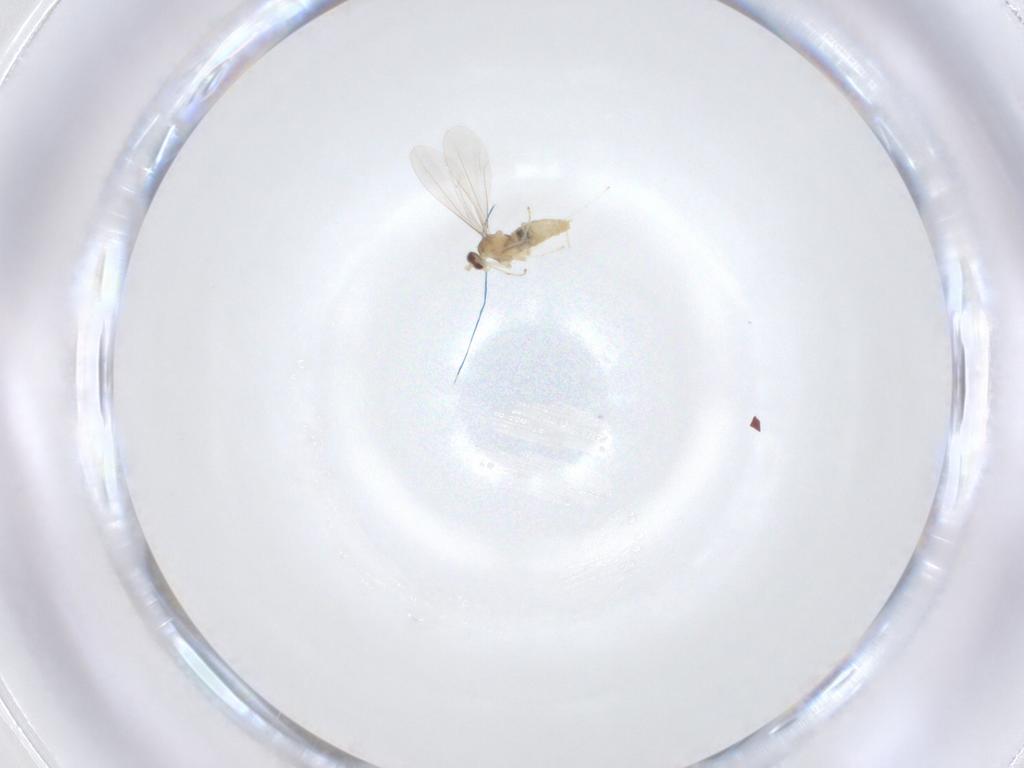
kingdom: Animalia
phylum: Arthropoda
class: Insecta
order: Diptera
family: Cecidomyiidae
